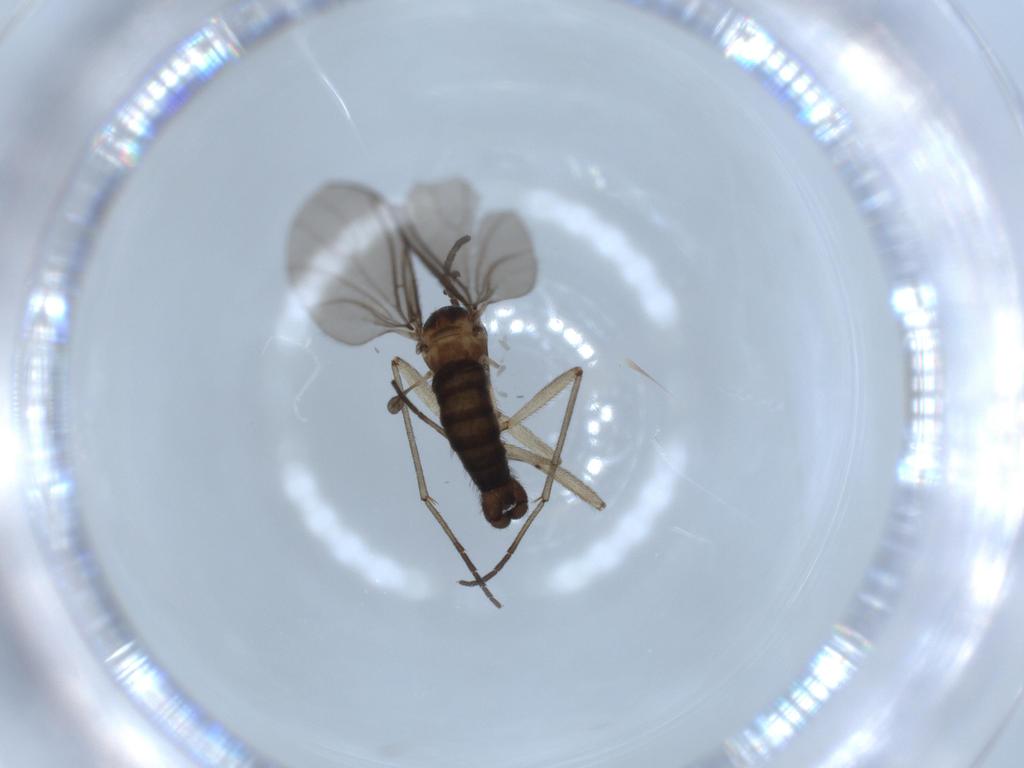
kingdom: Animalia
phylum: Arthropoda
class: Insecta
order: Diptera
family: Sciaridae
